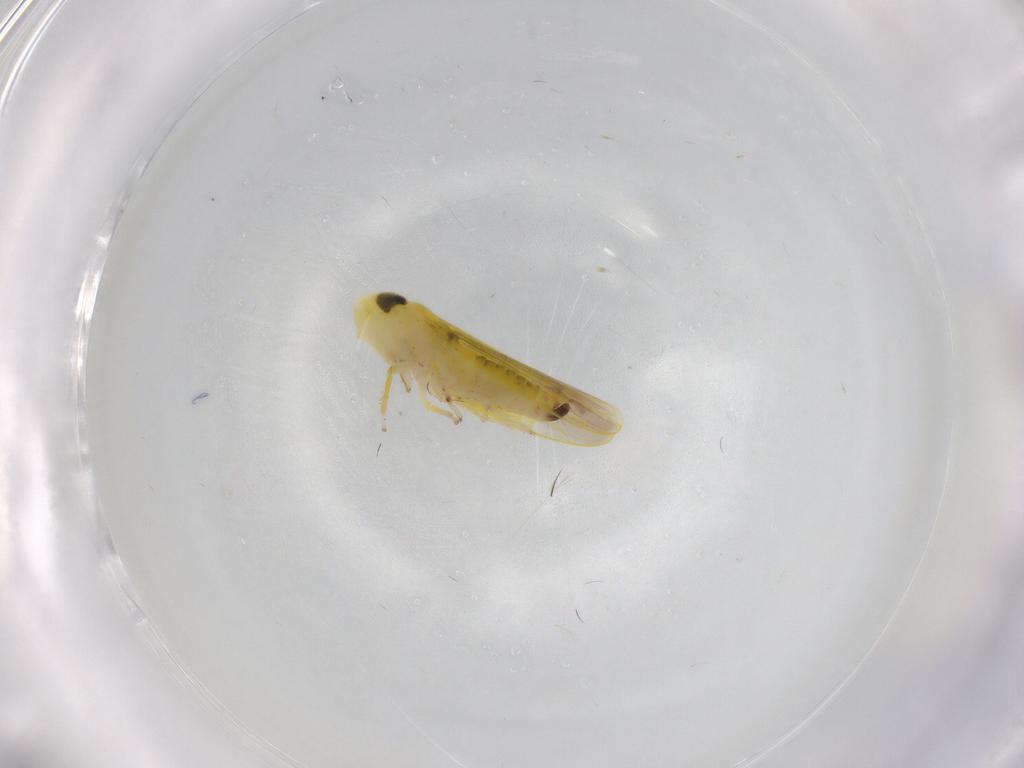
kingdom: Animalia
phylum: Arthropoda
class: Insecta
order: Hemiptera
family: Cicadellidae
